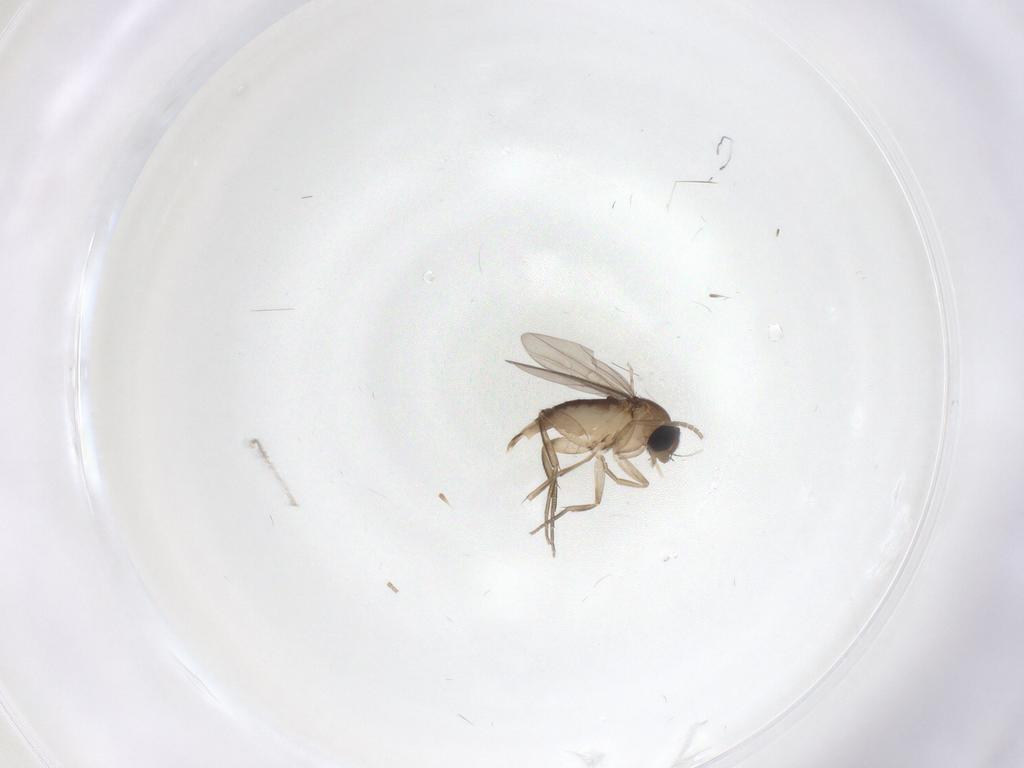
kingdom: Animalia
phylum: Arthropoda
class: Insecta
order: Diptera
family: Phoridae
